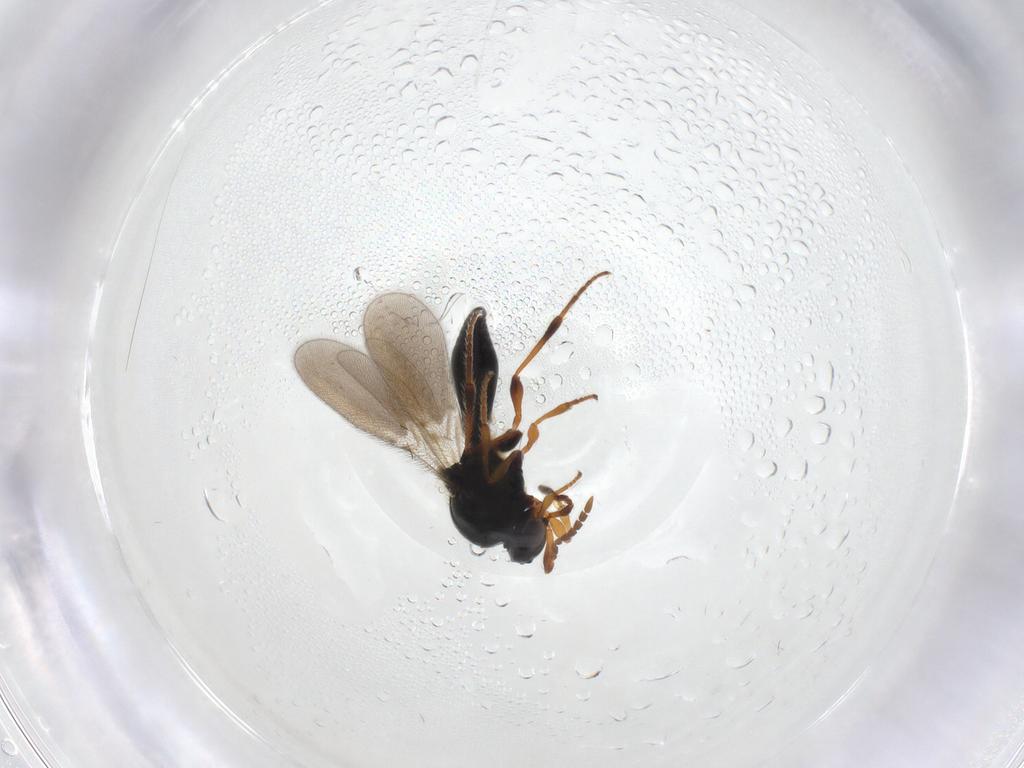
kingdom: Animalia
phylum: Arthropoda
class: Insecta
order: Hymenoptera
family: Platygastridae
